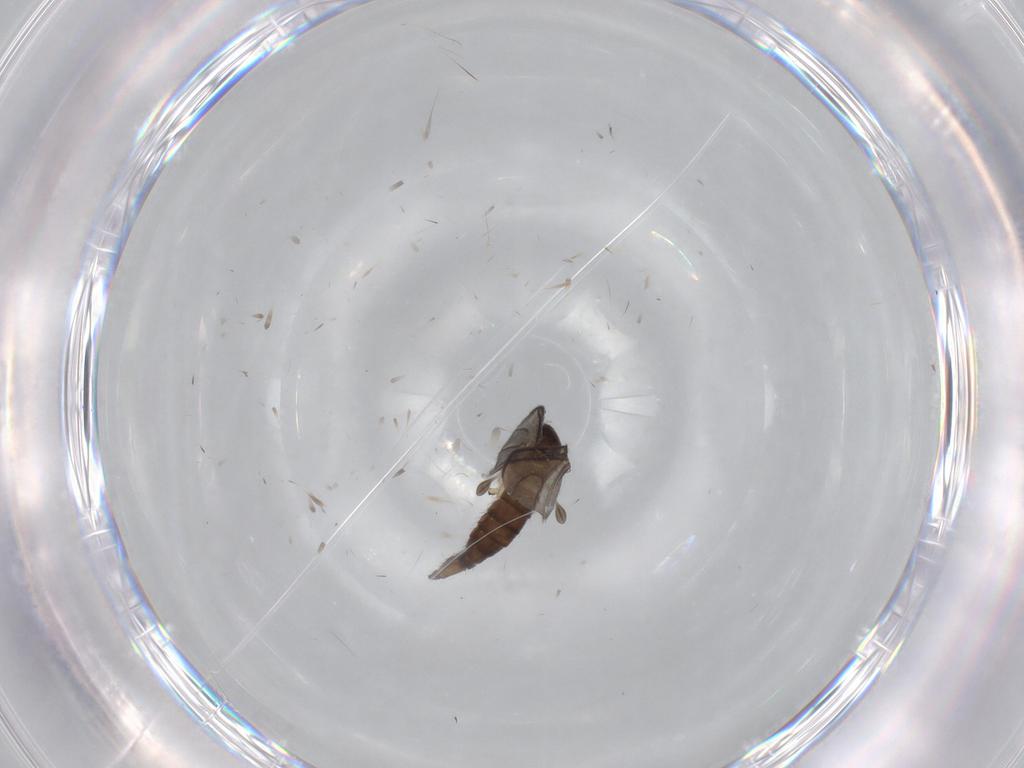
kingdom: Animalia
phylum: Arthropoda
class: Insecta
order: Diptera
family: Sciaridae
